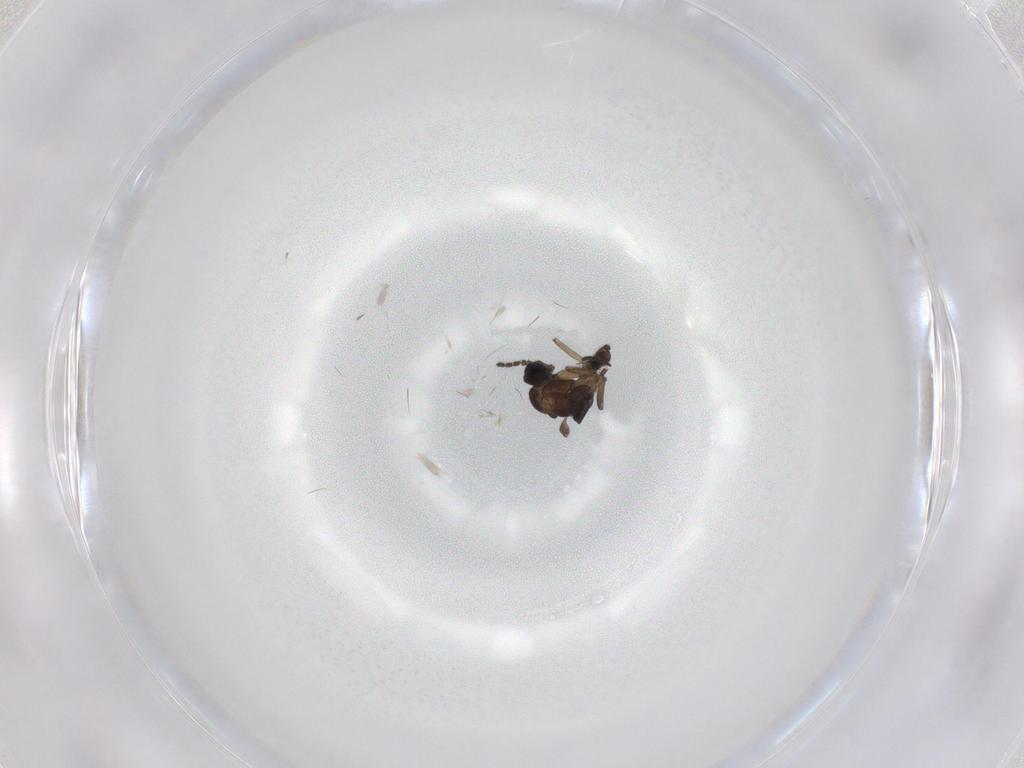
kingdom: Animalia
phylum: Arthropoda
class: Insecta
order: Diptera
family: Sciaridae
